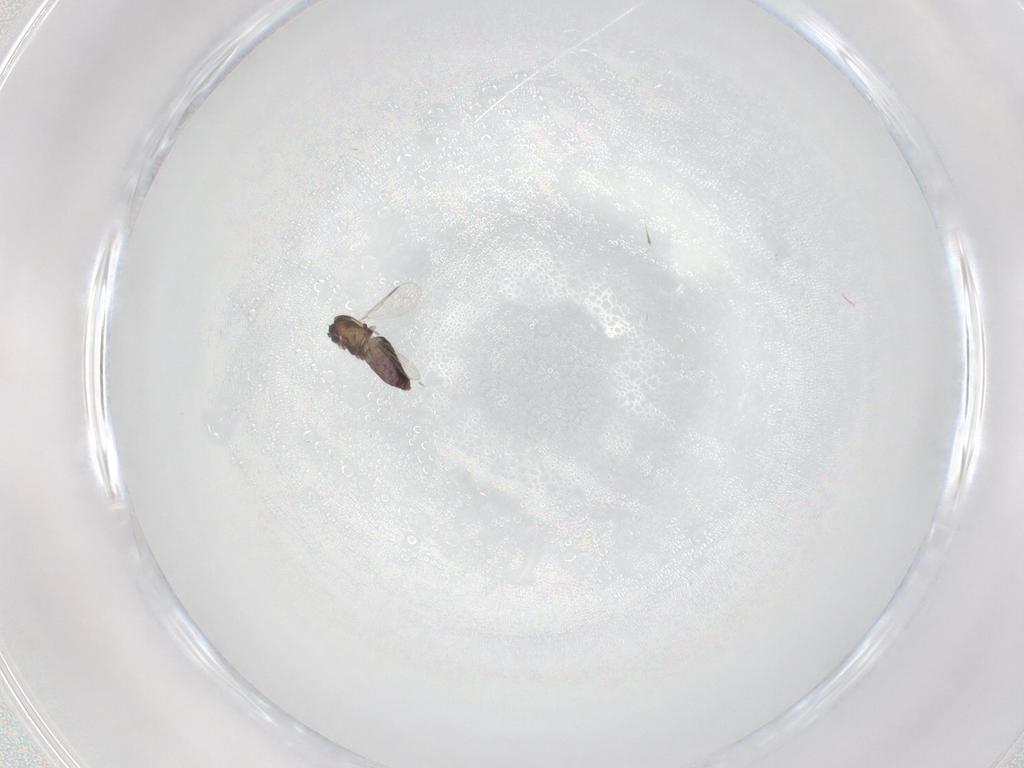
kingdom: Animalia
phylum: Arthropoda
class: Insecta
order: Diptera
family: Chironomidae
